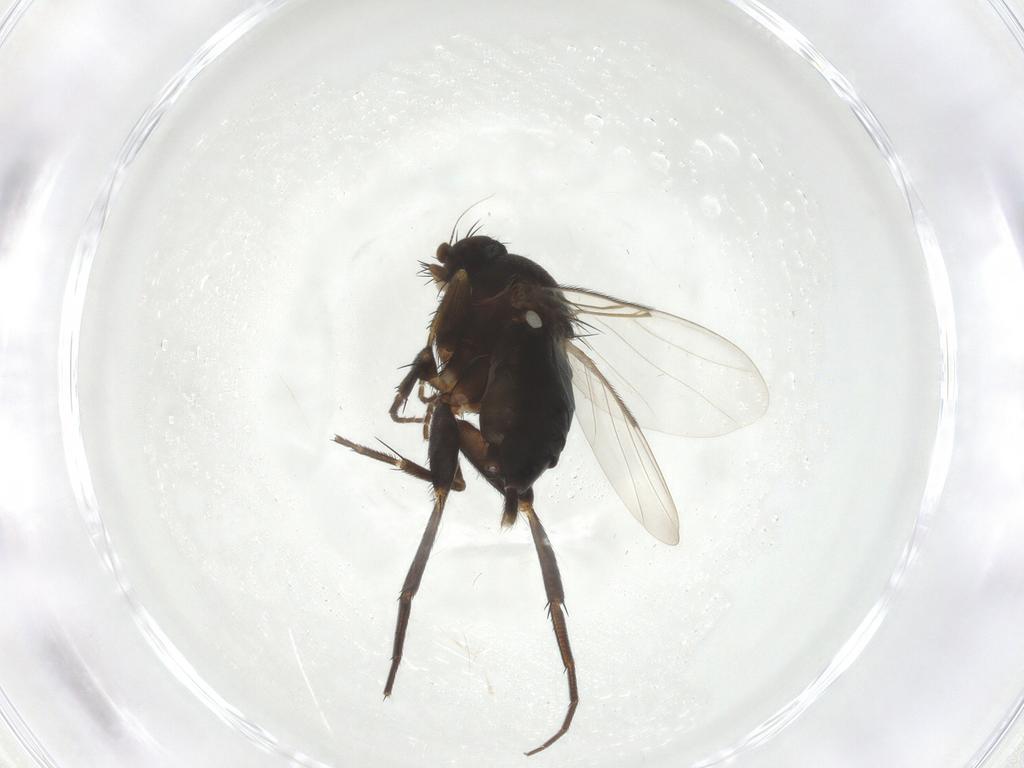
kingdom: Animalia
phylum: Arthropoda
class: Insecta
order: Diptera
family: Phoridae
